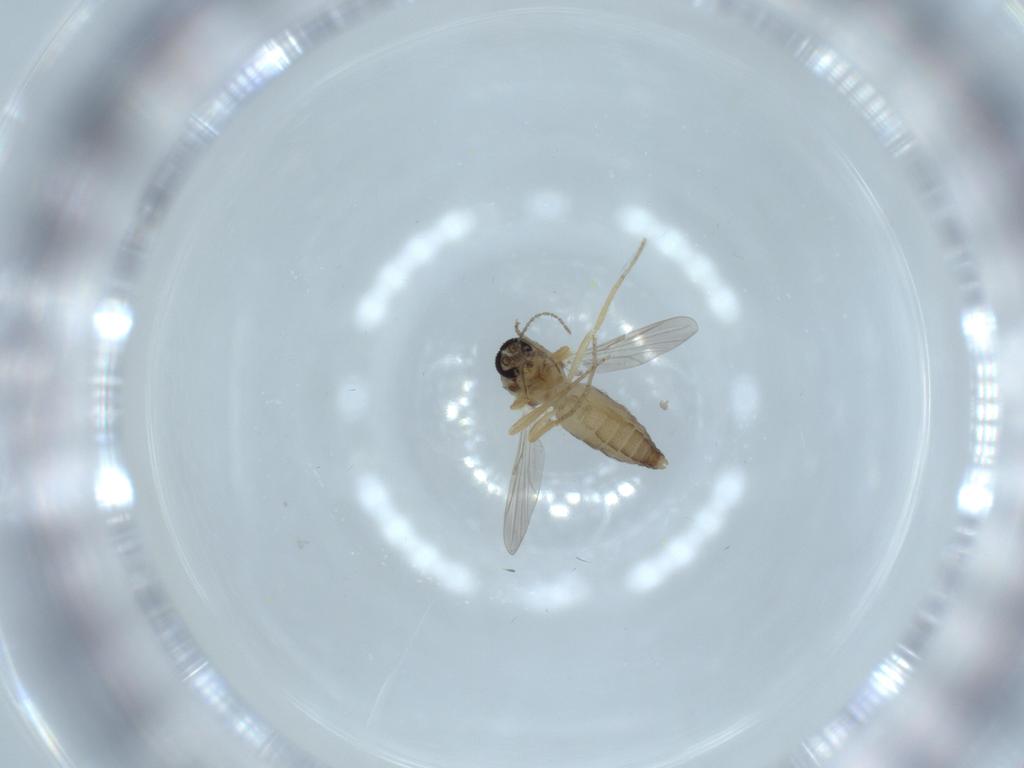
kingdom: Animalia
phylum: Arthropoda
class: Insecta
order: Diptera
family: Ceratopogonidae
